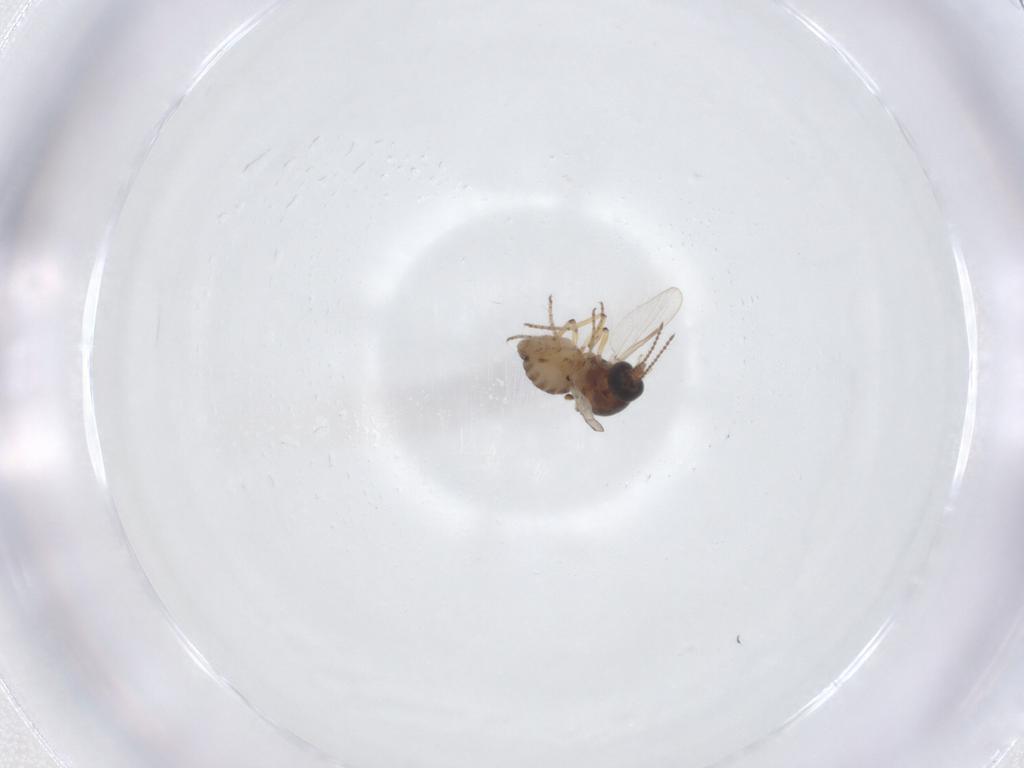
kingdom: Animalia
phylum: Arthropoda
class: Insecta
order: Diptera
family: Ceratopogonidae
